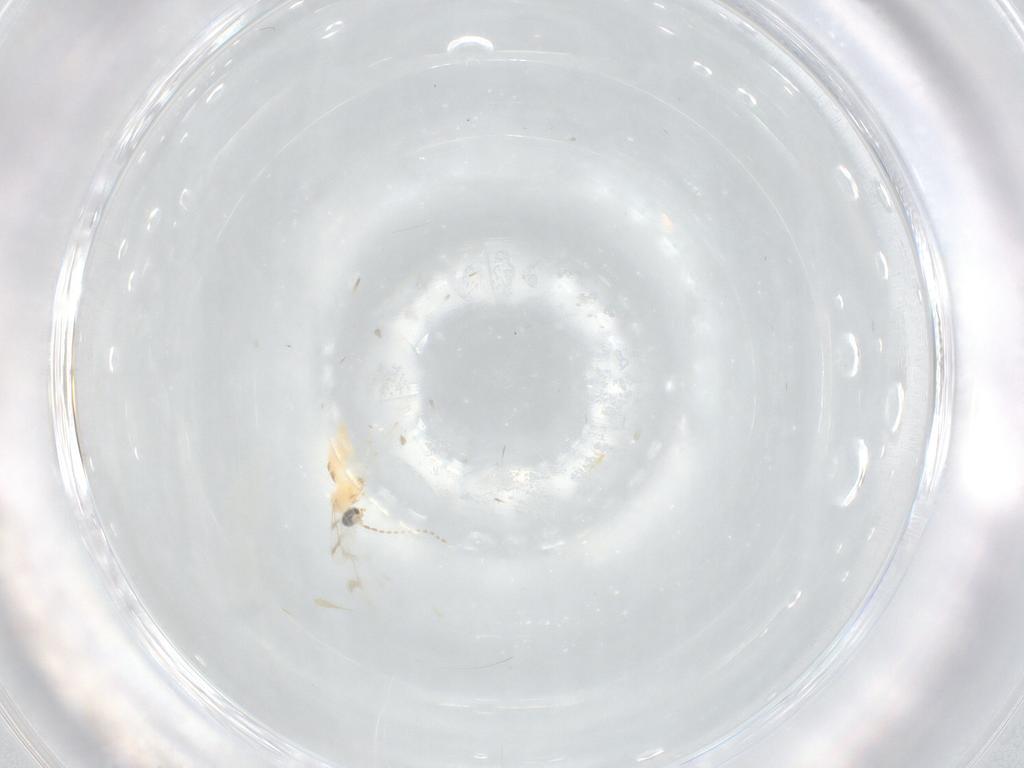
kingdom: Animalia
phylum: Arthropoda
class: Insecta
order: Diptera
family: Cecidomyiidae
